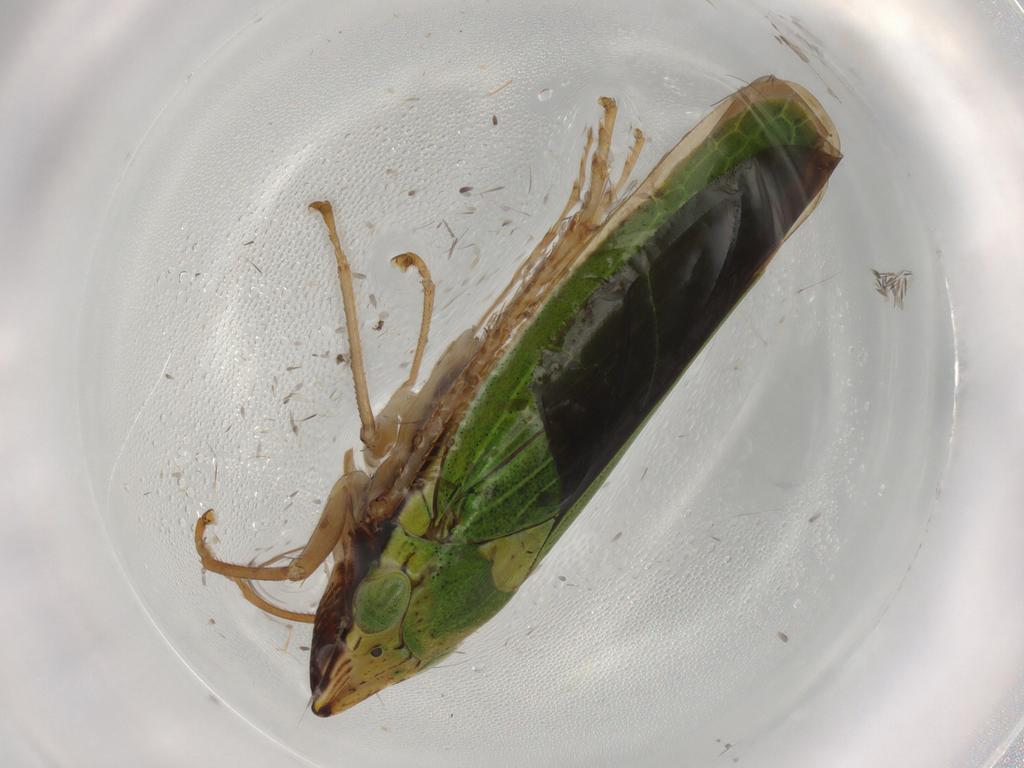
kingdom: Animalia
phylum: Arthropoda
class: Insecta
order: Hemiptera
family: Cicadellidae
